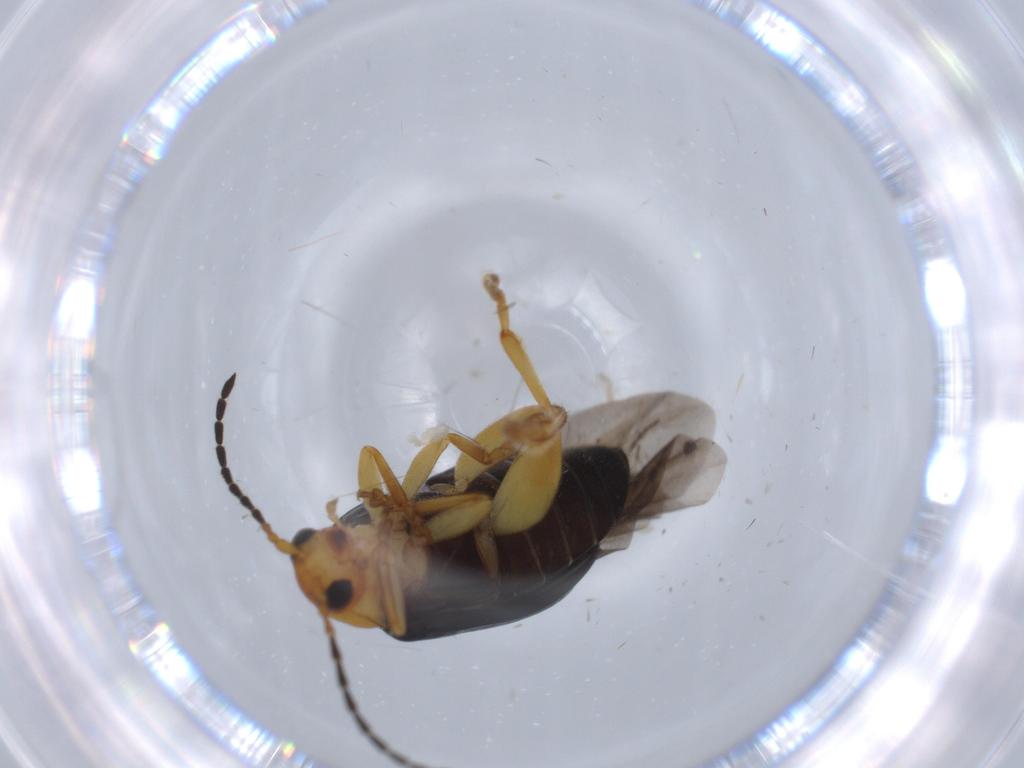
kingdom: Animalia
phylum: Arthropoda
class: Insecta
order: Coleoptera
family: Chrysomelidae
